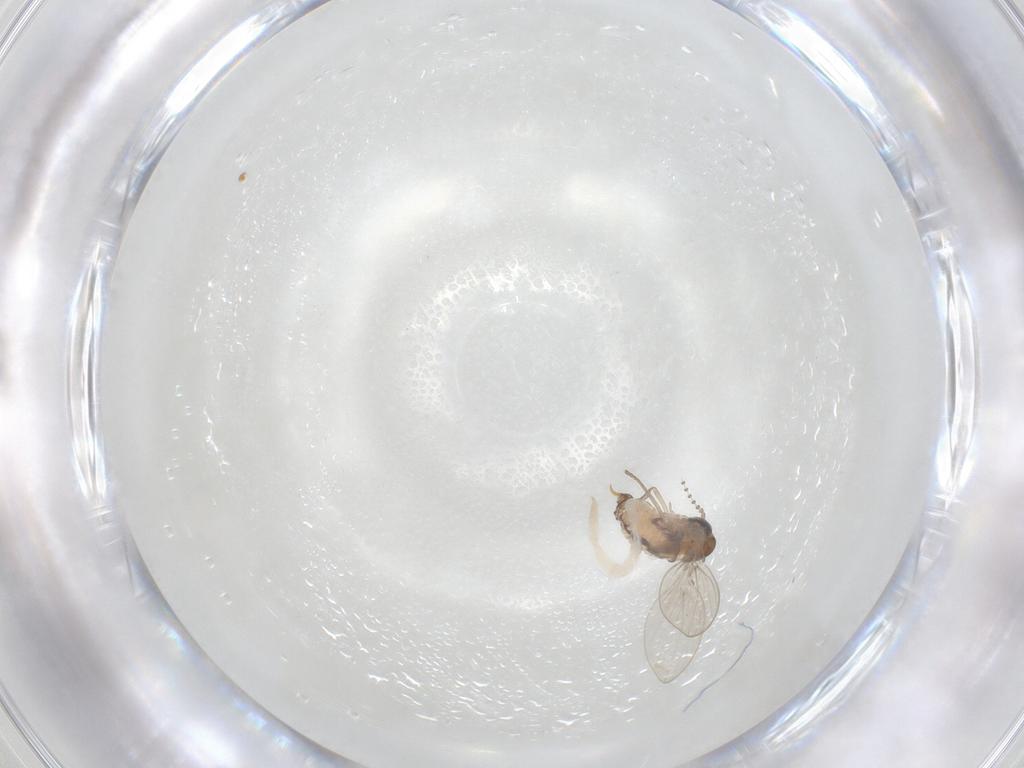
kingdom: Animalia
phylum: Arthropoda
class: Insecta
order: Diptera
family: Psychodidae
